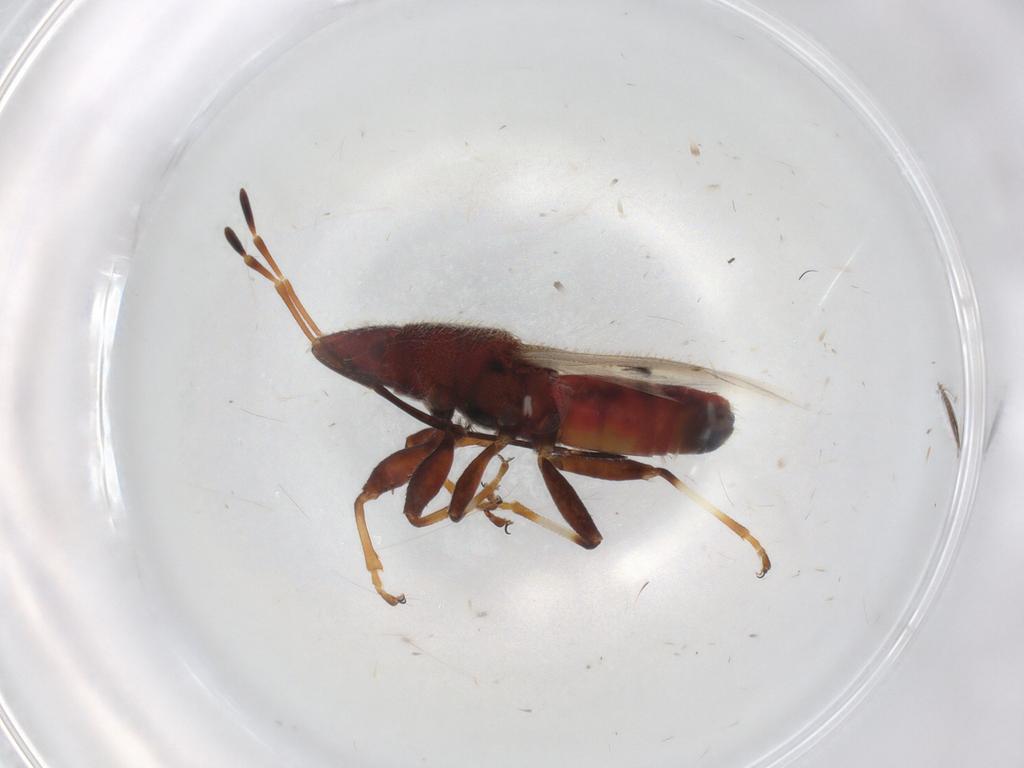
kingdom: Animalia
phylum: Arthropoda
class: Insecta
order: Hemiptera
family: Oxycarenidae
